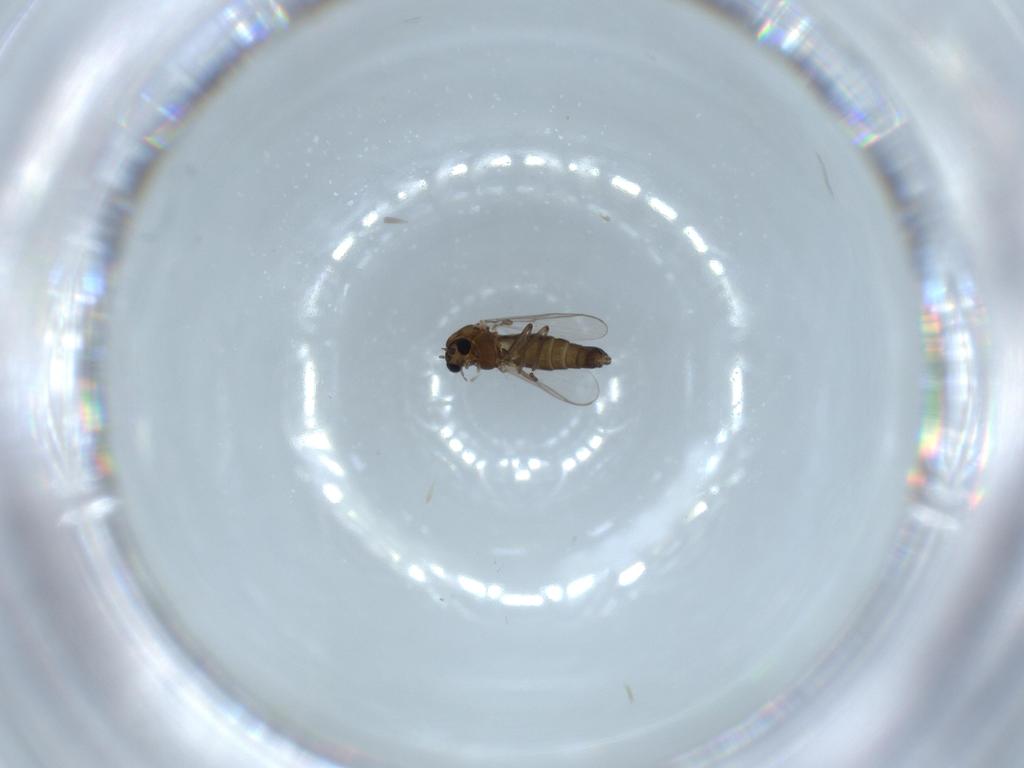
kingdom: Animalia
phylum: Arthropoda
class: Insecta
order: Diptera
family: Chironomidae
